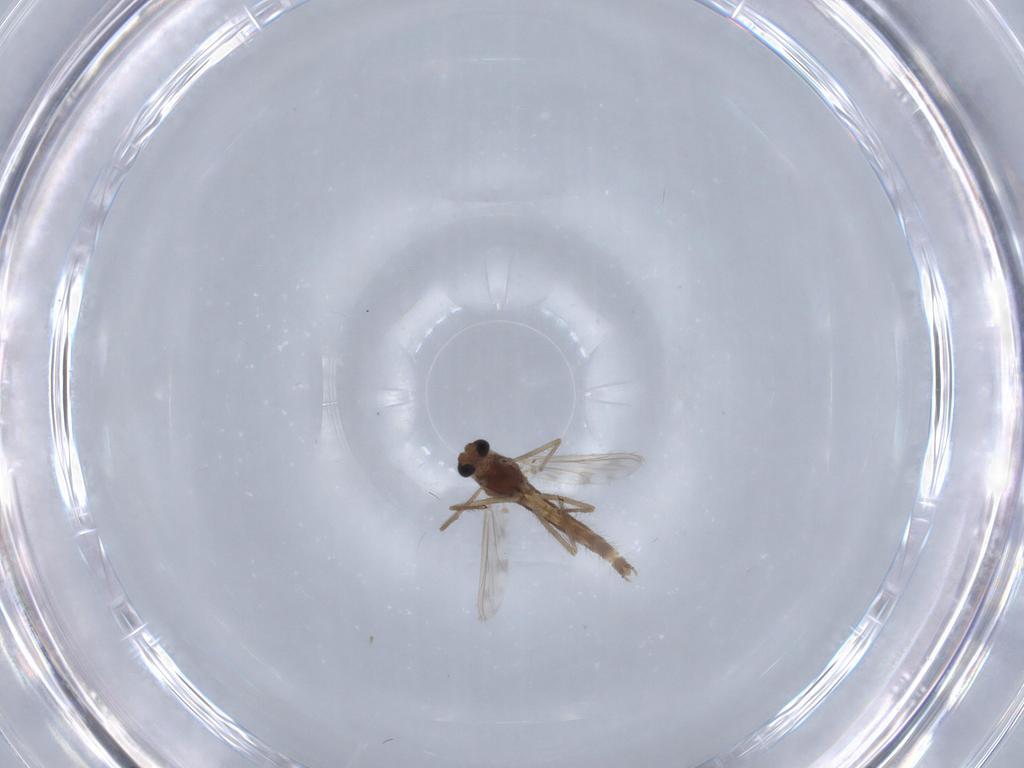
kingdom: Animalia
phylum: Arthropoda
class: Insecta
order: Diptera
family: Chironomidae
